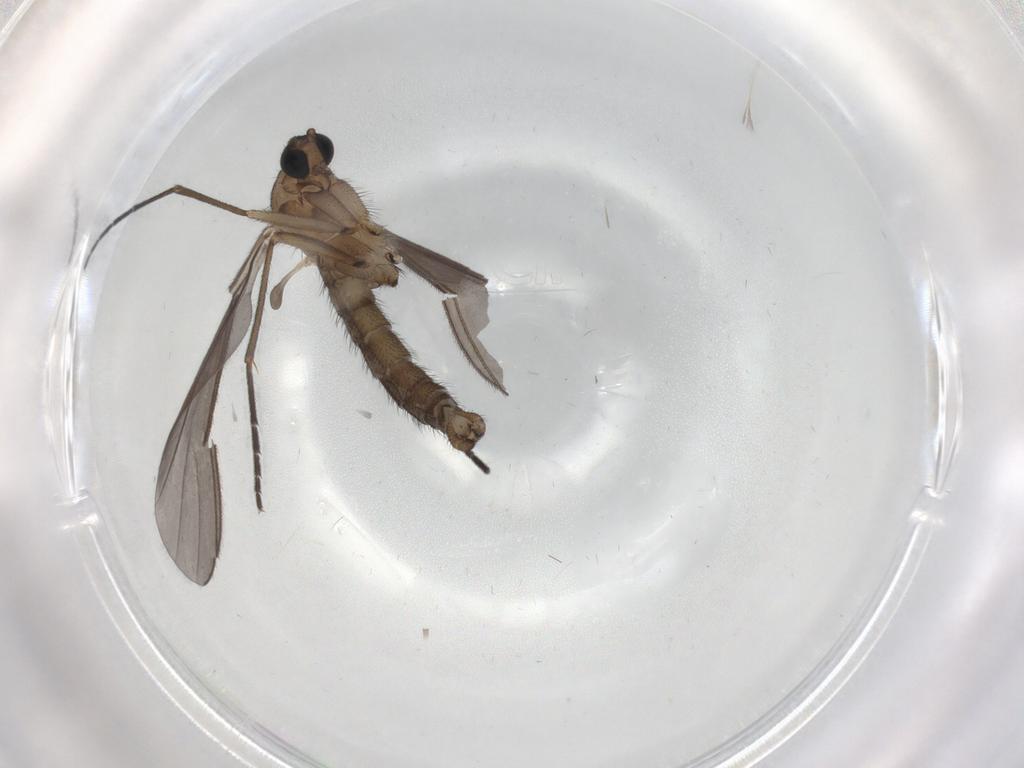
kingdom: Animalia
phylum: Arthropoda
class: Insecta
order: Diptera
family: Sciaridae
